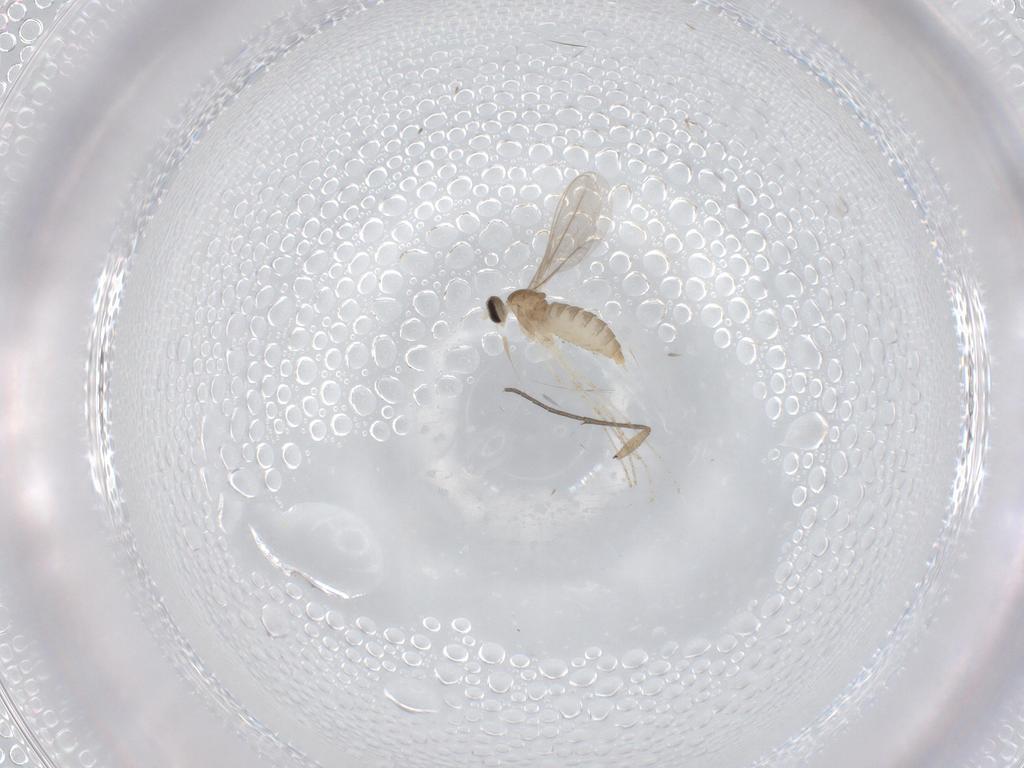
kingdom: Animalia
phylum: Arthropoda
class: Insecta
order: Diptera
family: Cecidomyiidae
